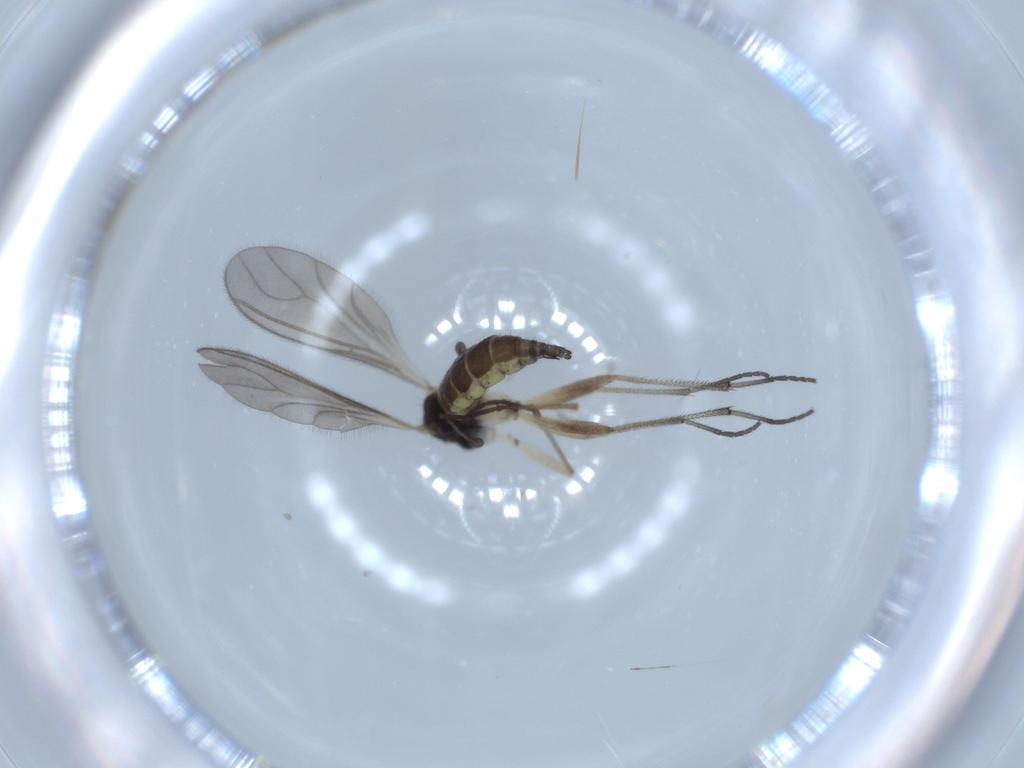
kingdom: Animalia
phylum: Arthropoda
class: Insecta
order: Diptera
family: Sciaridae
